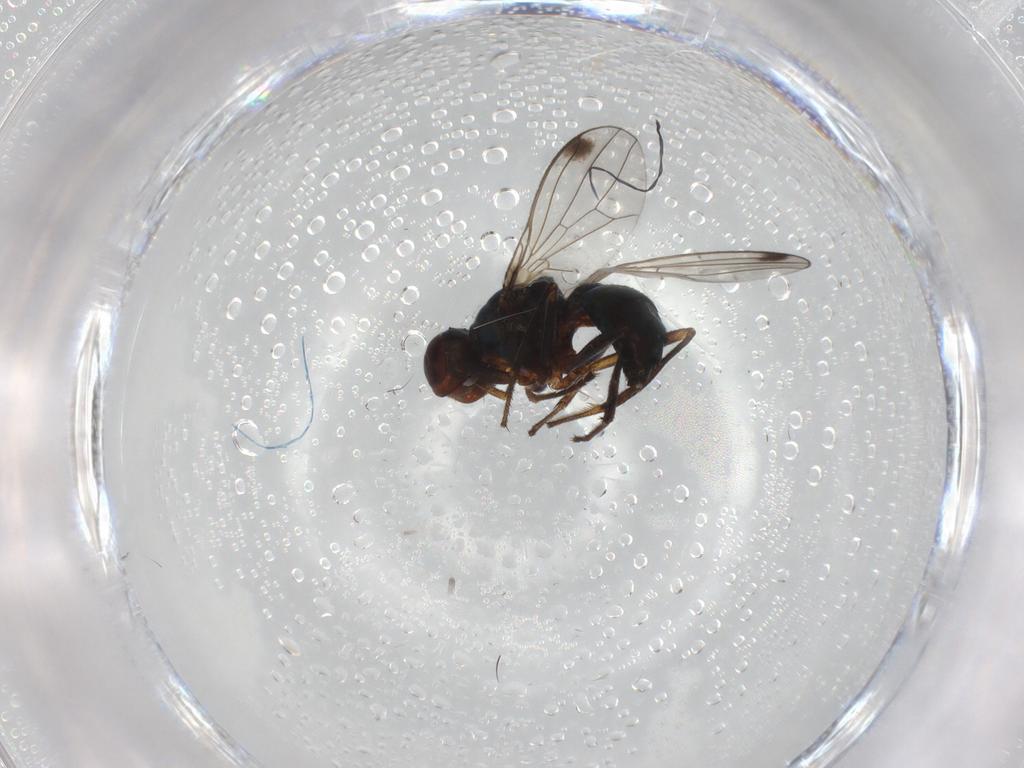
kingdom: Animalia
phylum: Arthropoda
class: Insecta
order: Diptera
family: Sepsidae
